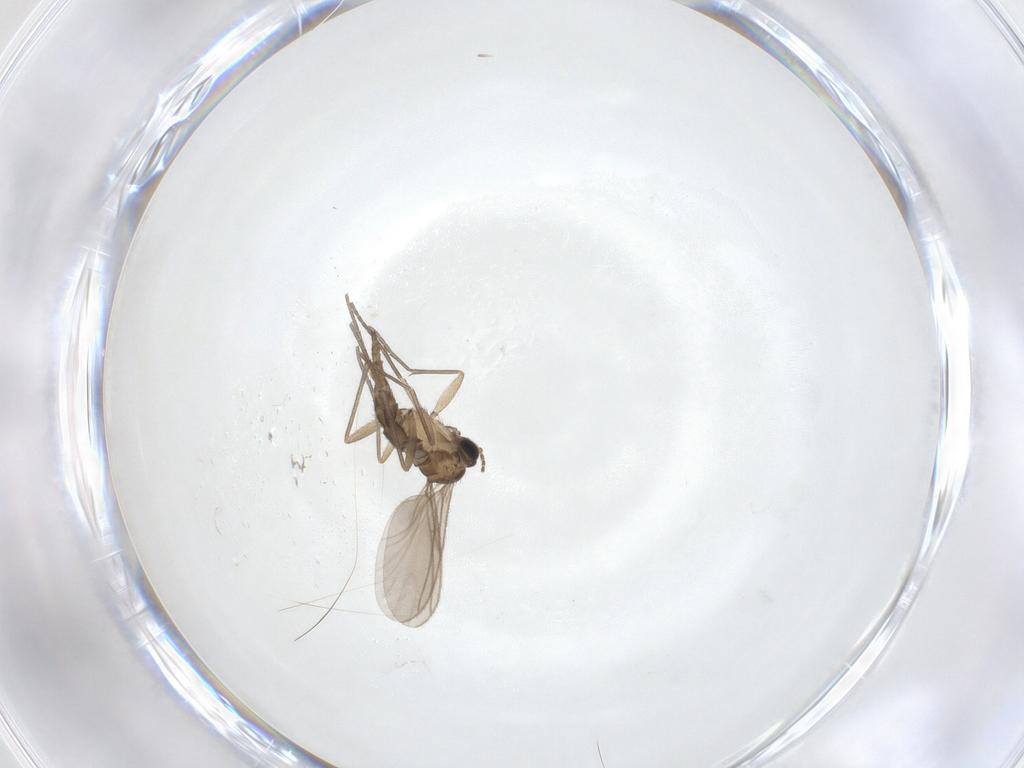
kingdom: Animalia
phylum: Arthropoda
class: Insecta
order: Diptera
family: Sciaridae
